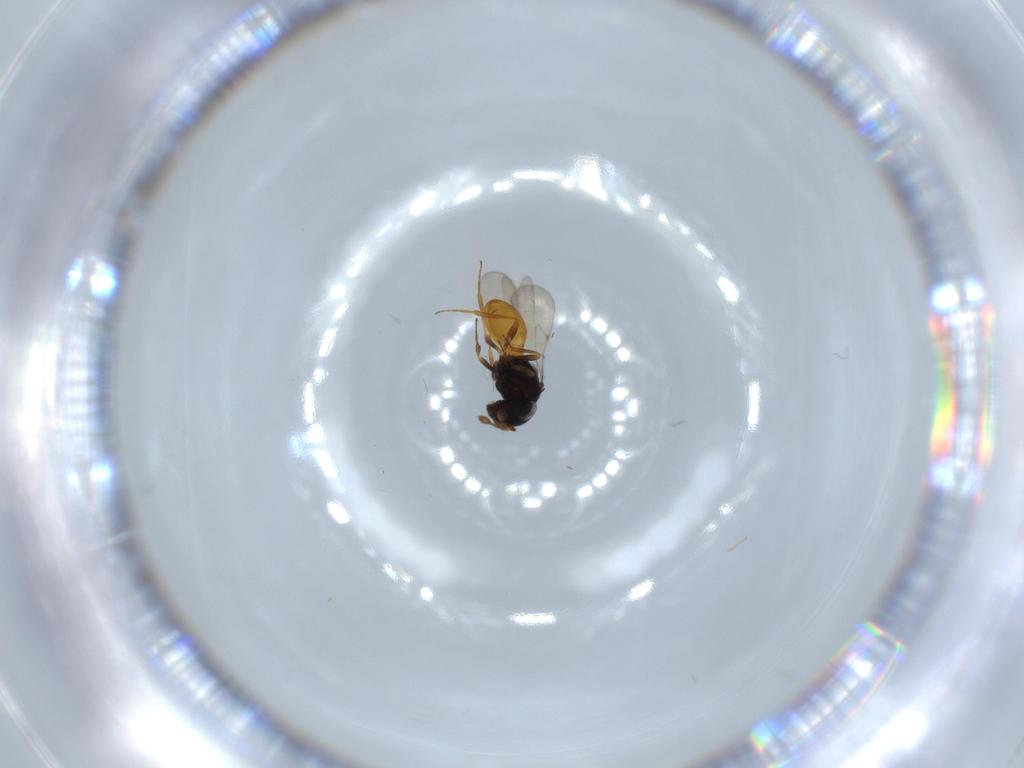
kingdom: Animalia
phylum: Arthropoda
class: Insecta
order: Hymenoptera
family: Scelionidae
